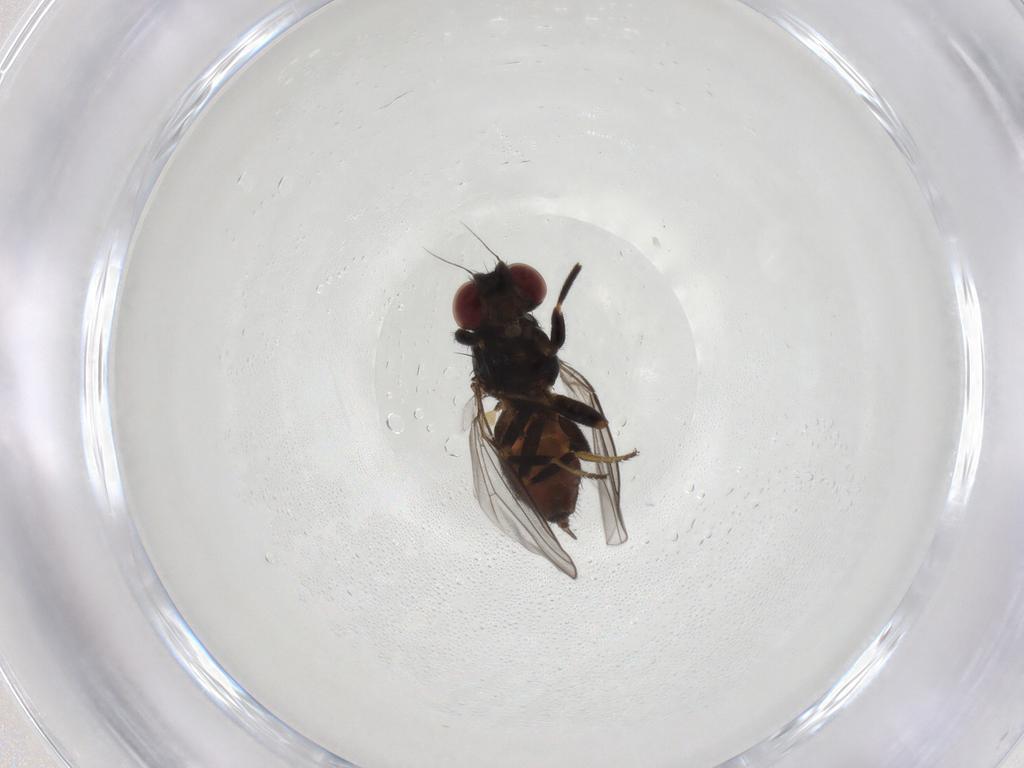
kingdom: Animalia
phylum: Arthropoda
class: Insecta
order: Diptera
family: Chloropidae
